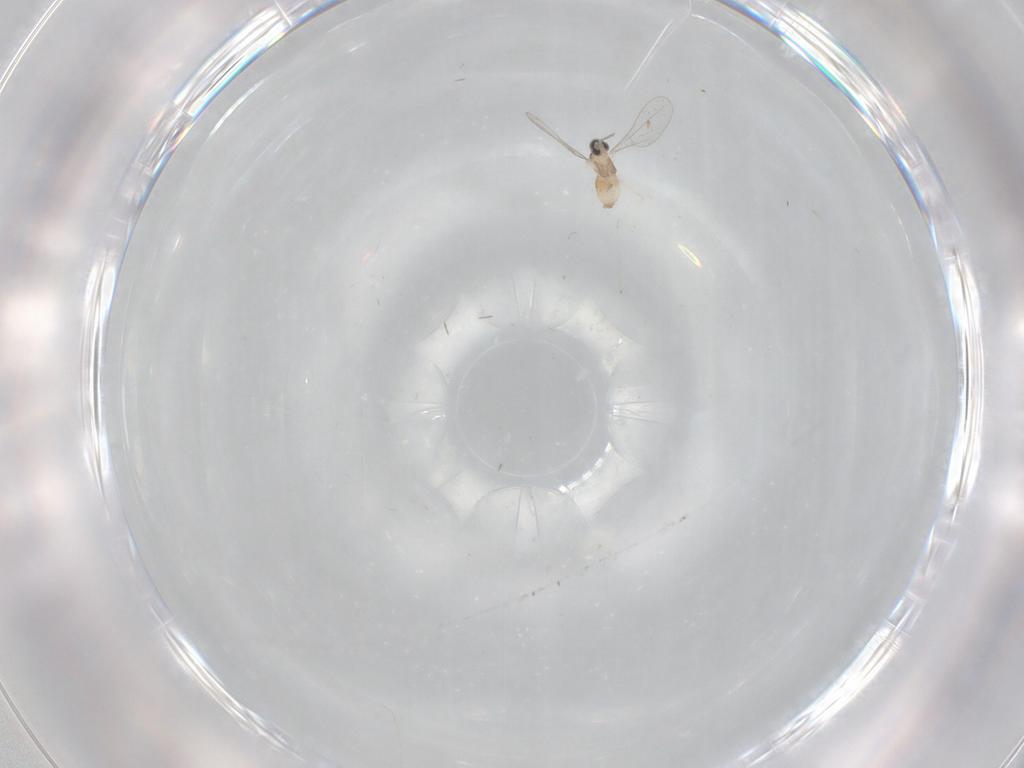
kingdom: Animalia
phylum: Arthropoda
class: Insecta
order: Diptera
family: Cecidomyiidae
